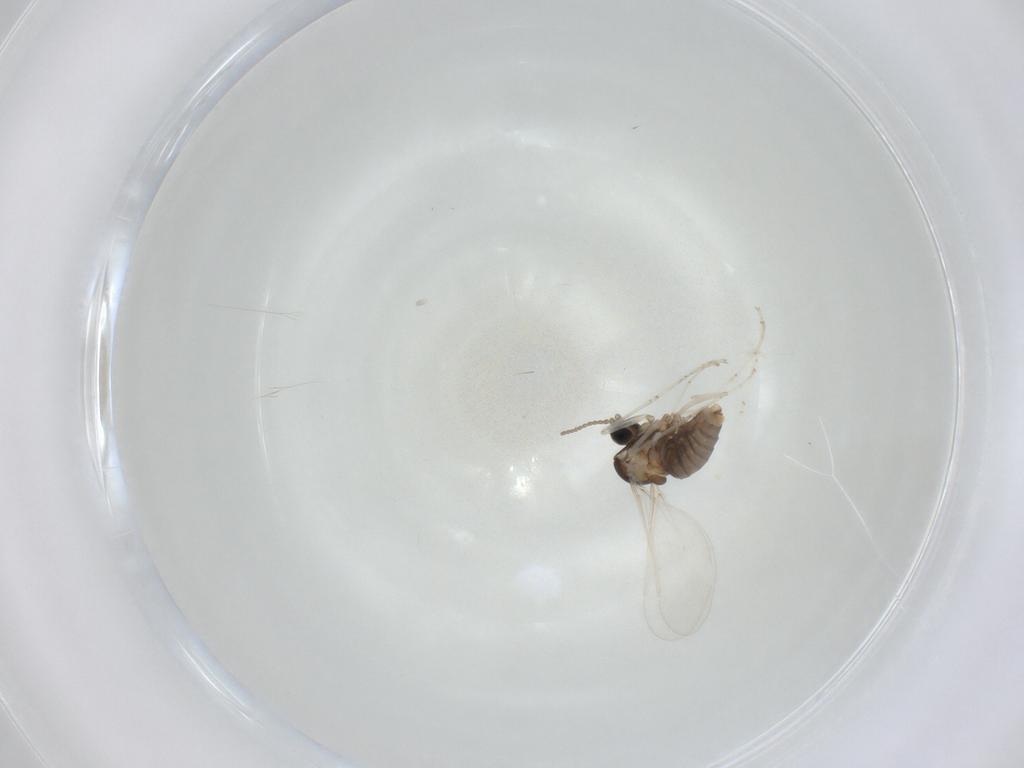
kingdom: Animalia
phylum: Arthropoda
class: Insecta
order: Diptera
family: Cecidomyiidae
